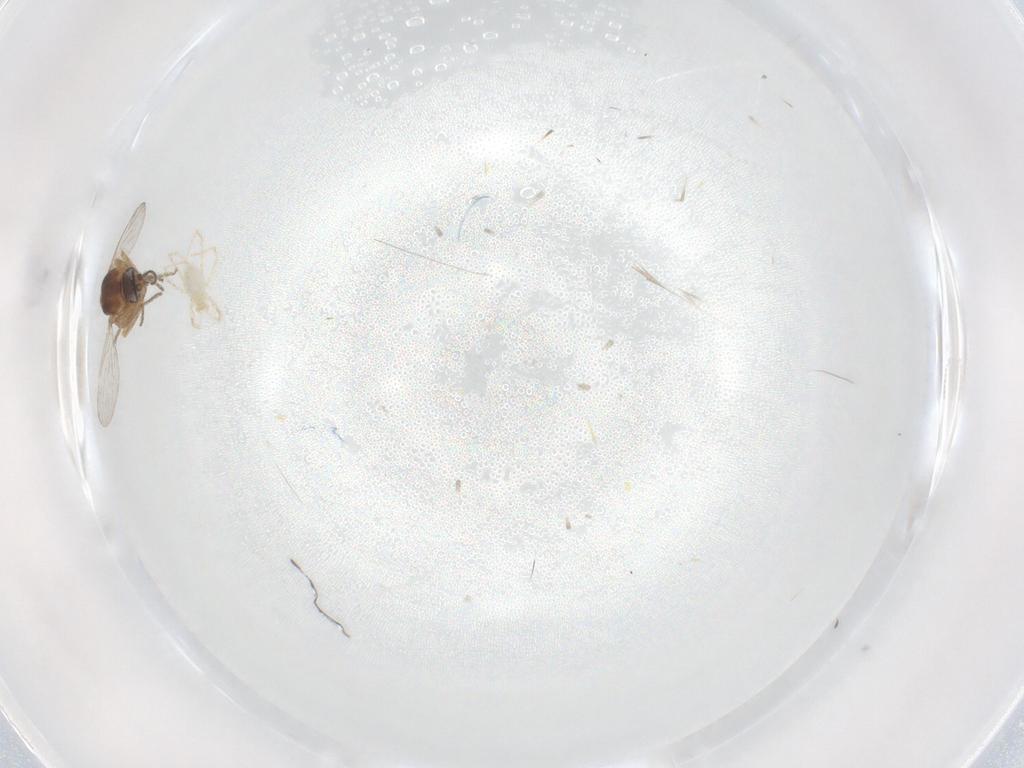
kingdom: Animalia
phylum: Arthropoda
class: Insecta
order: Diptera
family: Ceratopogonidae
